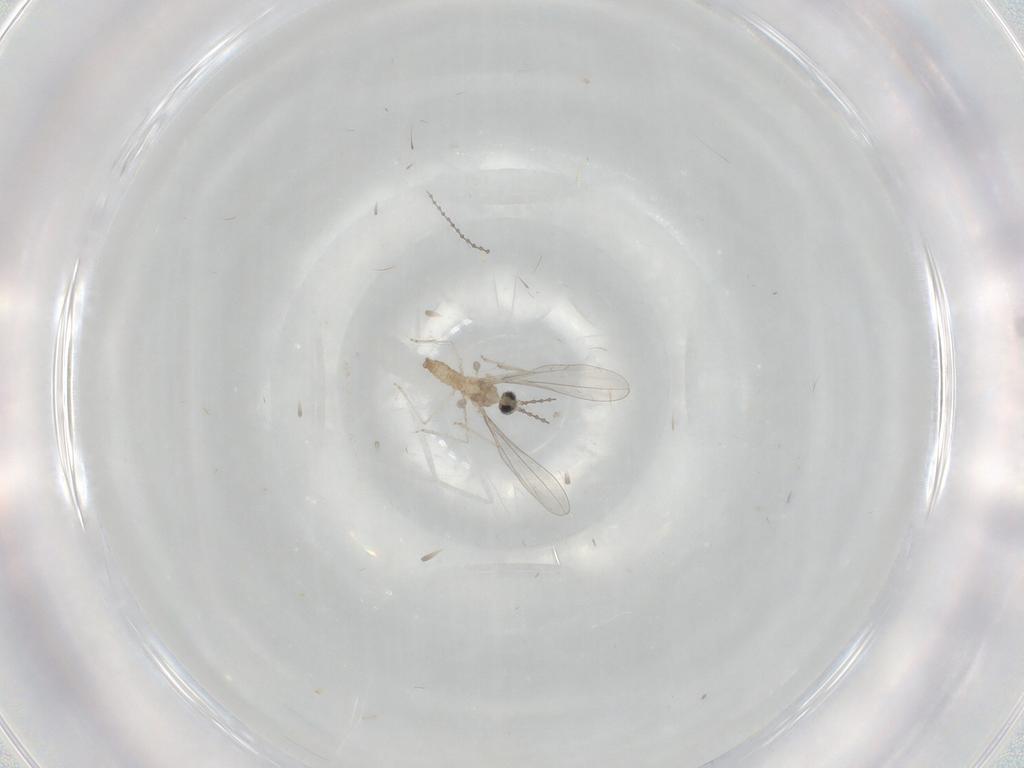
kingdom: Animalia
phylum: Arthropoda
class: Insecta
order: Diptera
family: Cecidomyiidae
